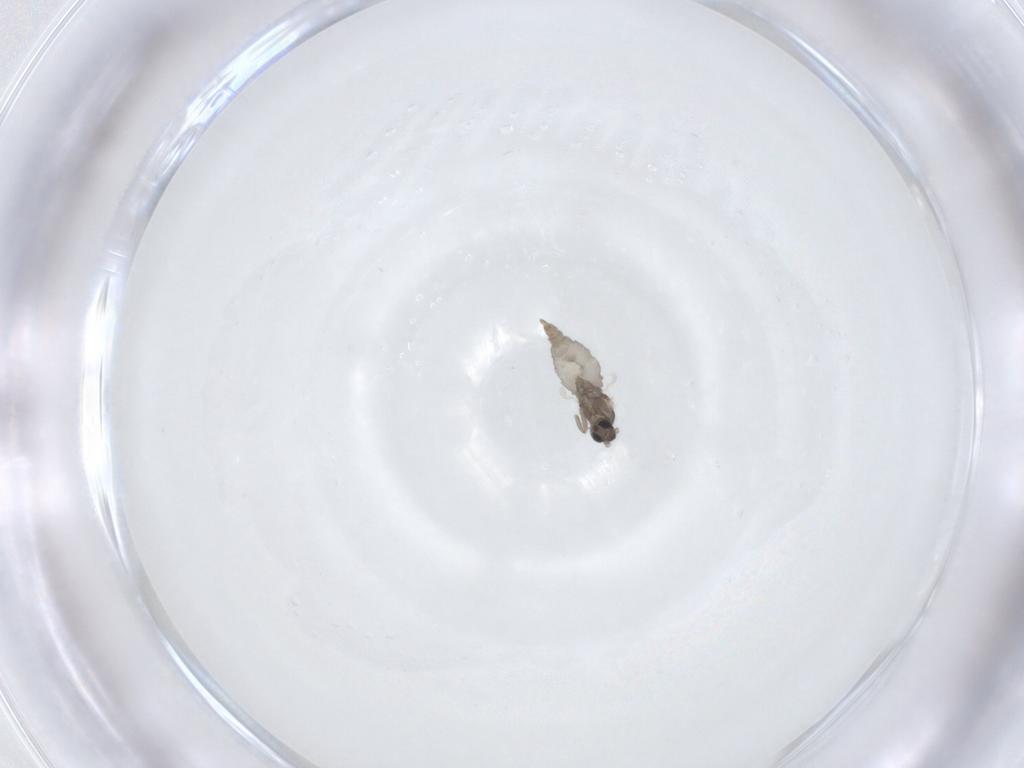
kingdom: Animalia
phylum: Arthropoda
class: Insecta
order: Diptera
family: Cecidomyiidae
